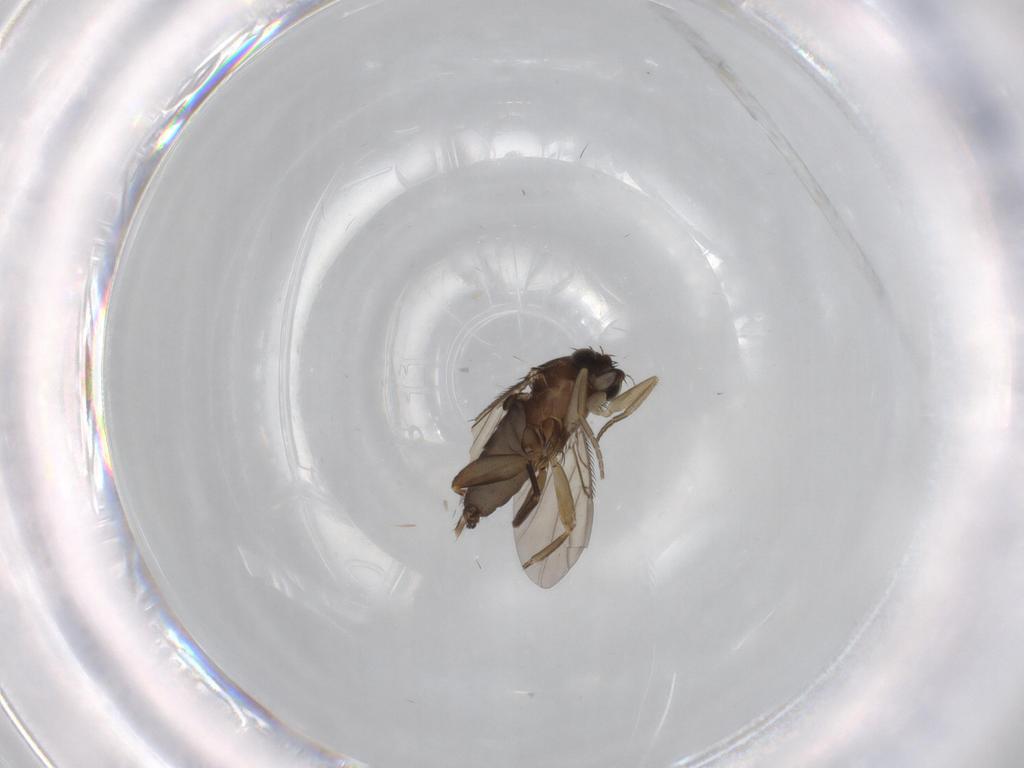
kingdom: Animalia
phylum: Arthropoda
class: Insecta
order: Diptera
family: Cecidomyiidae
